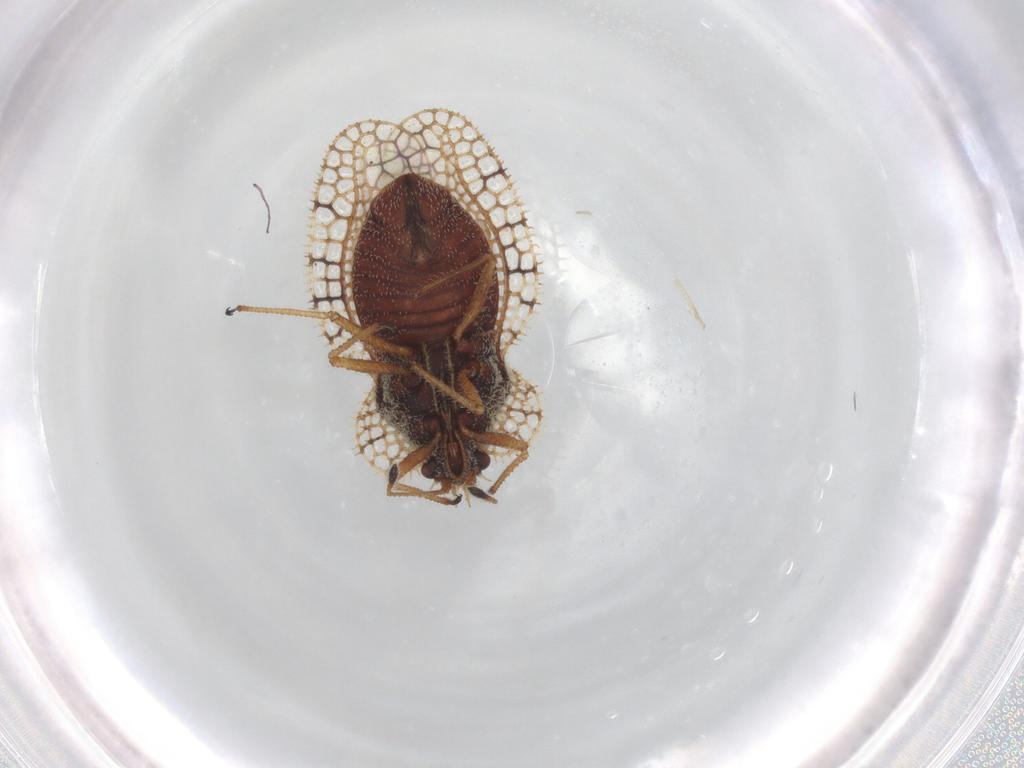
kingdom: Animalia
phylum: Arthropoda
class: Insecta
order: Hemiptera
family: Tingidae
